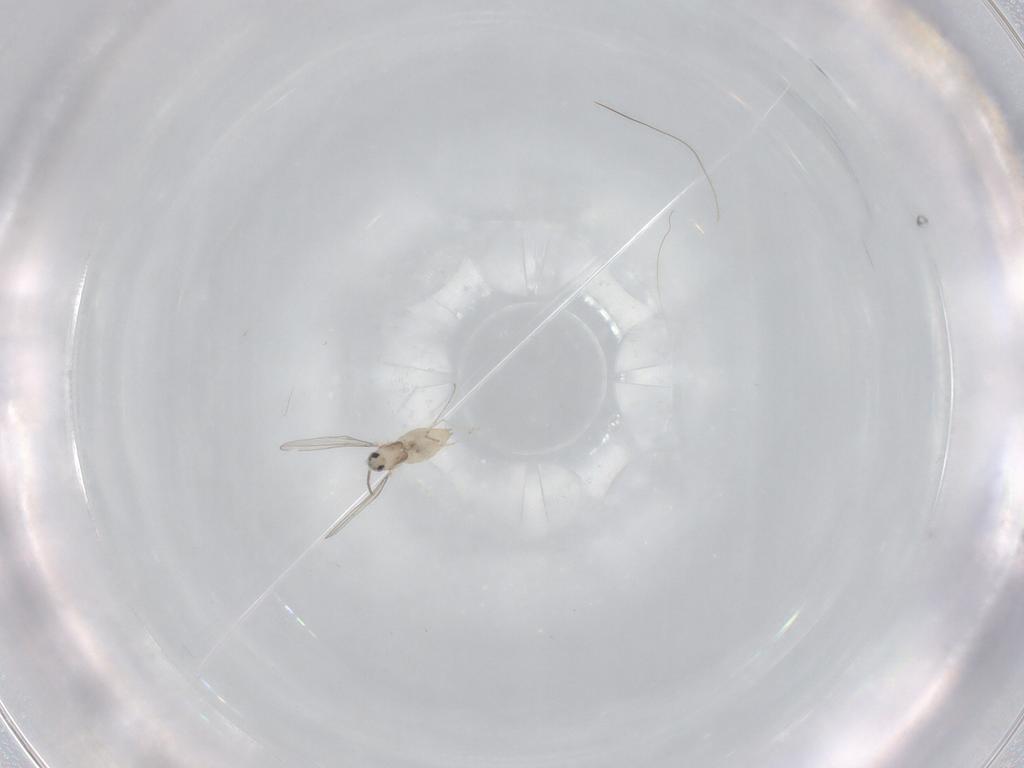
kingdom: Animalia
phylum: Arthropoda
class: Insecta
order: Diptera
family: Cecidomyiidae
